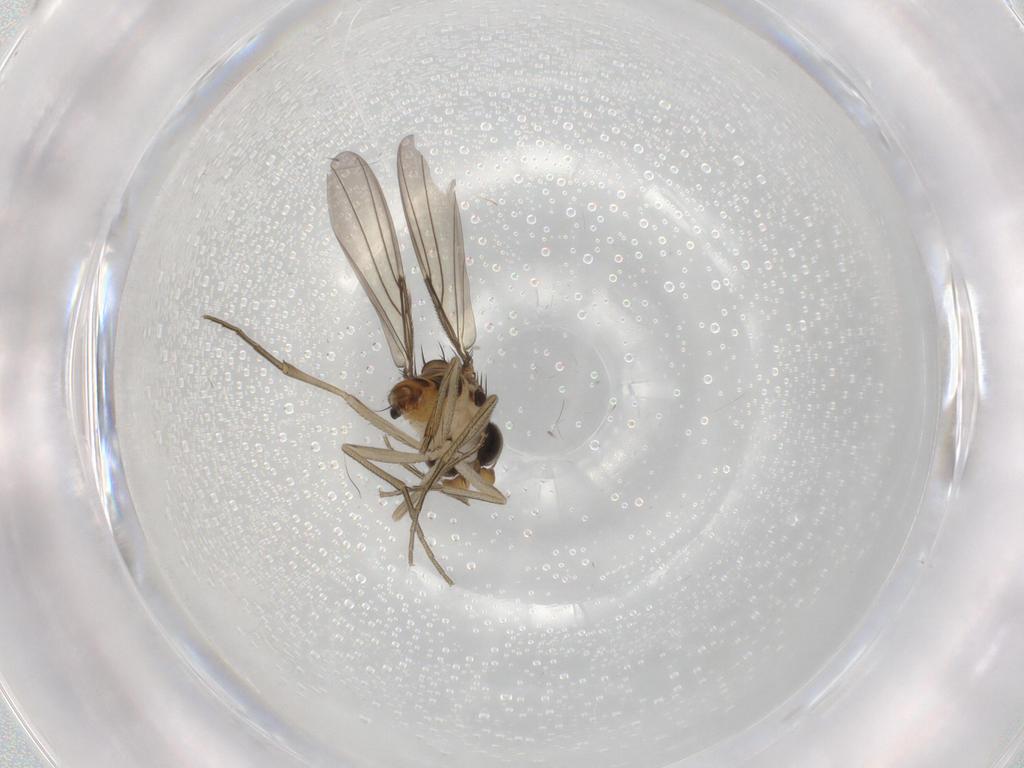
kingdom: Animalia
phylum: Arthropoda
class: Insecta
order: Diptera
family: Phoridae
